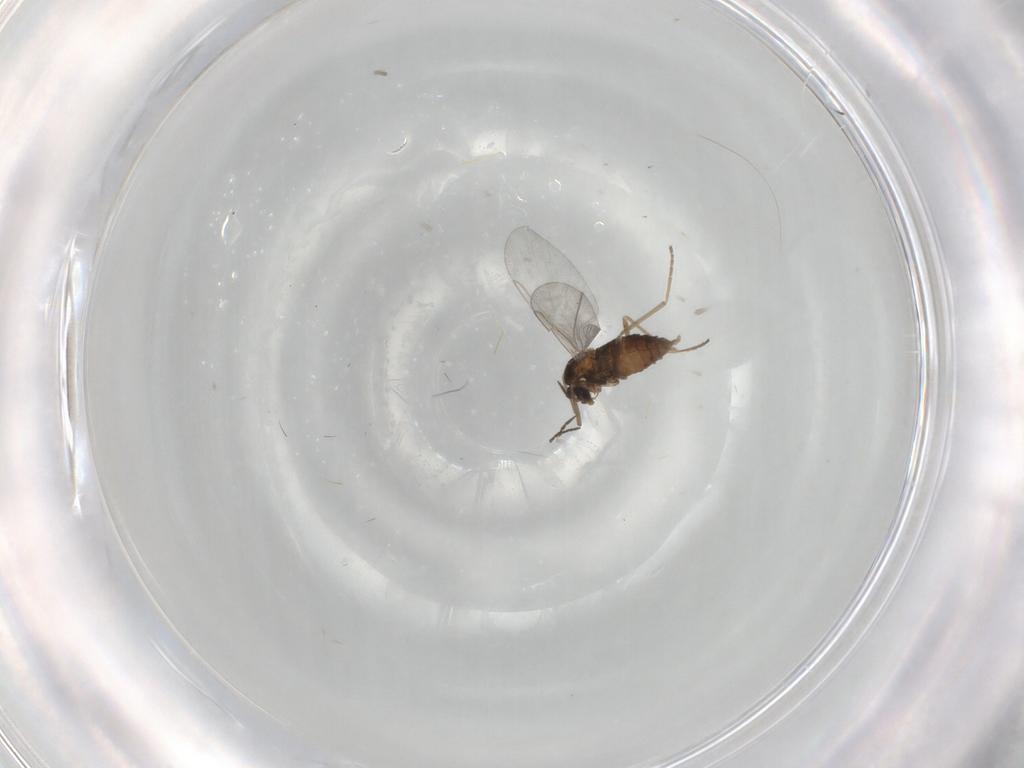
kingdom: Animalia
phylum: Arthropoda
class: Insecta
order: Diptera
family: Cecidomyiidae
